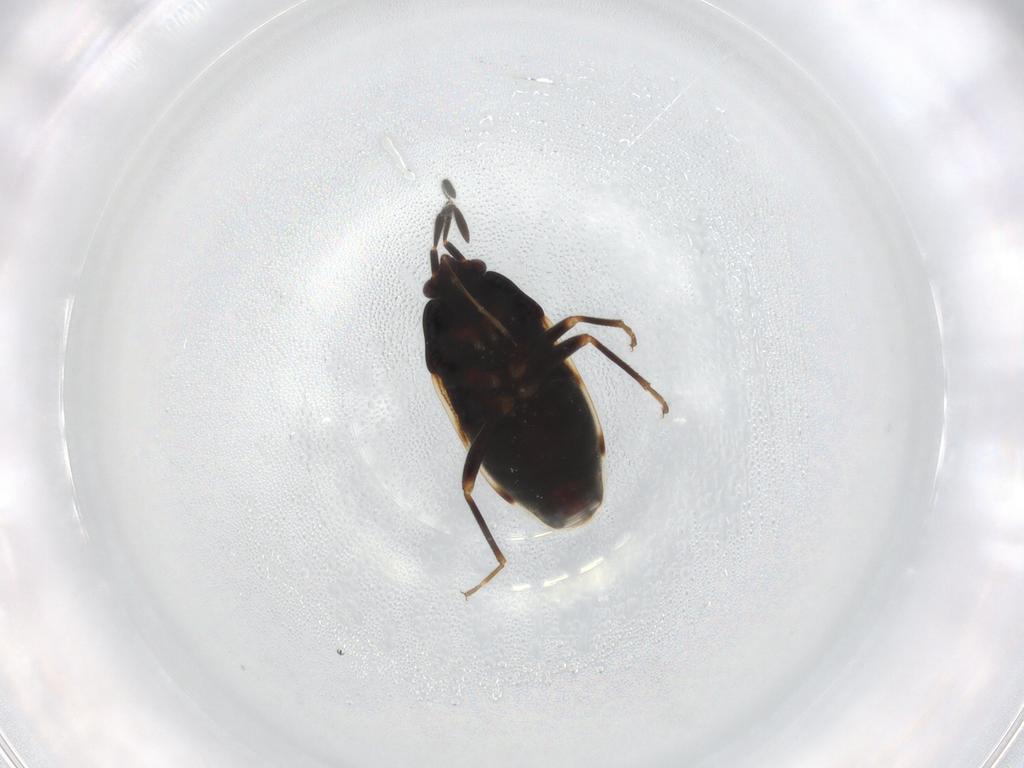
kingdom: Animalia
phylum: Arthropoda
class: Insecta
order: Hemiptera
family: Rhyparochromidae
